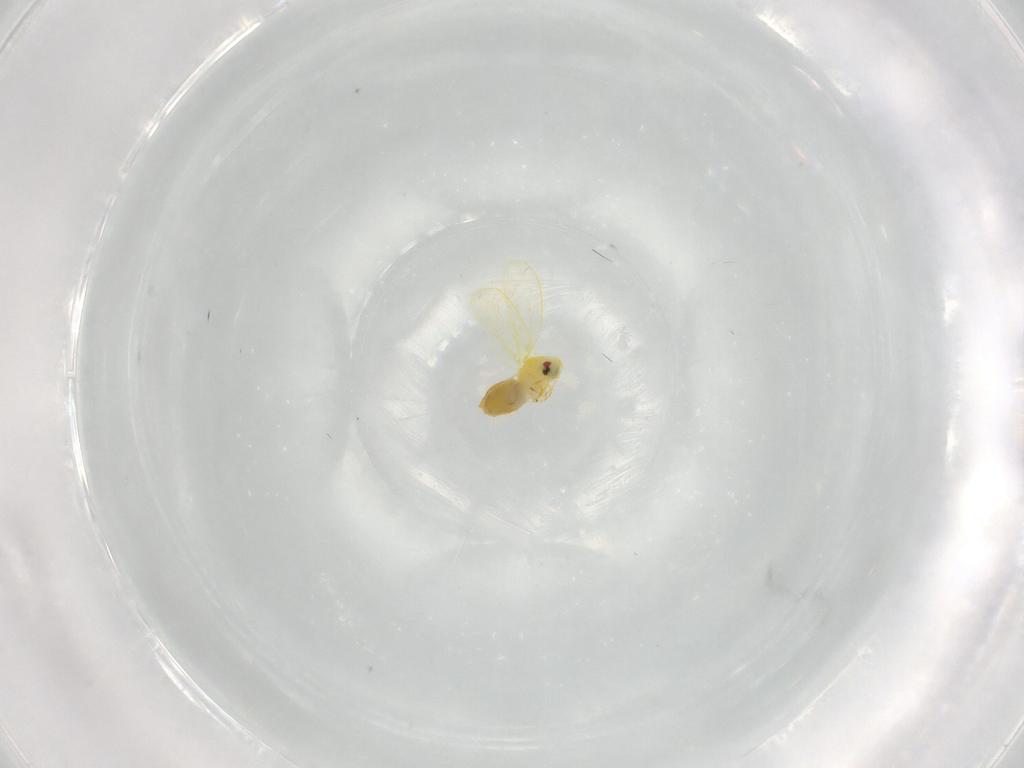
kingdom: Animalia
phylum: Arthropoda
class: Insecta
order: Hemiptera
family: Aleyrodidae
